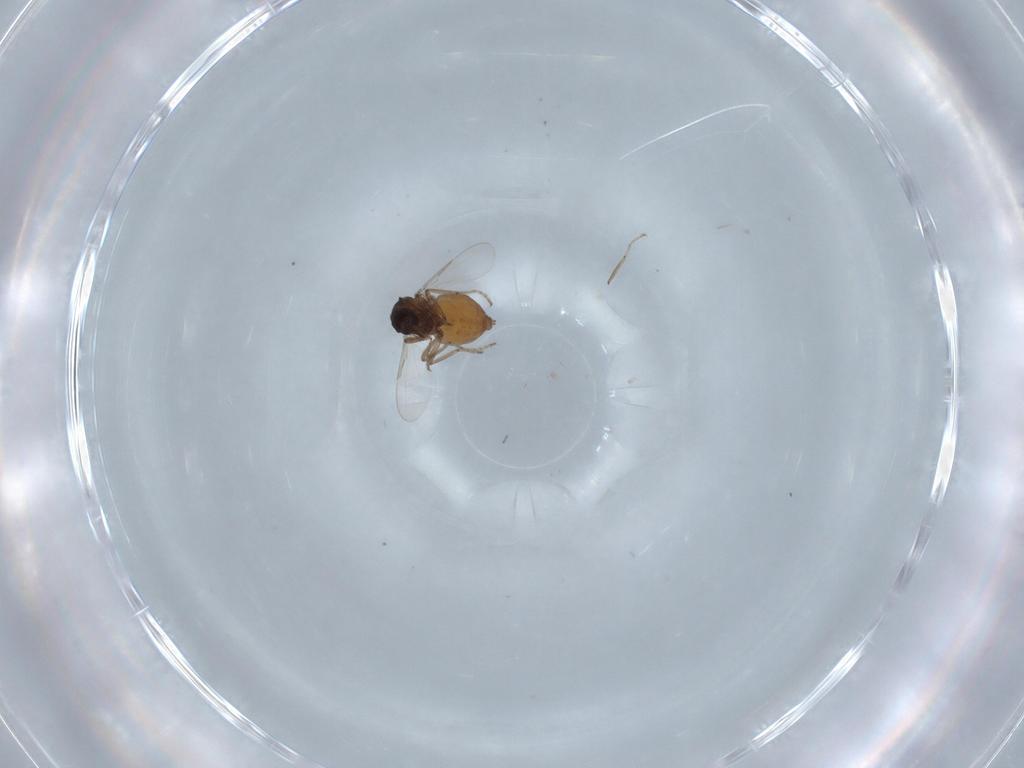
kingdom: Animalia
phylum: Arthropoda
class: Insecta
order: Diptera
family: Ceratopogonidae
